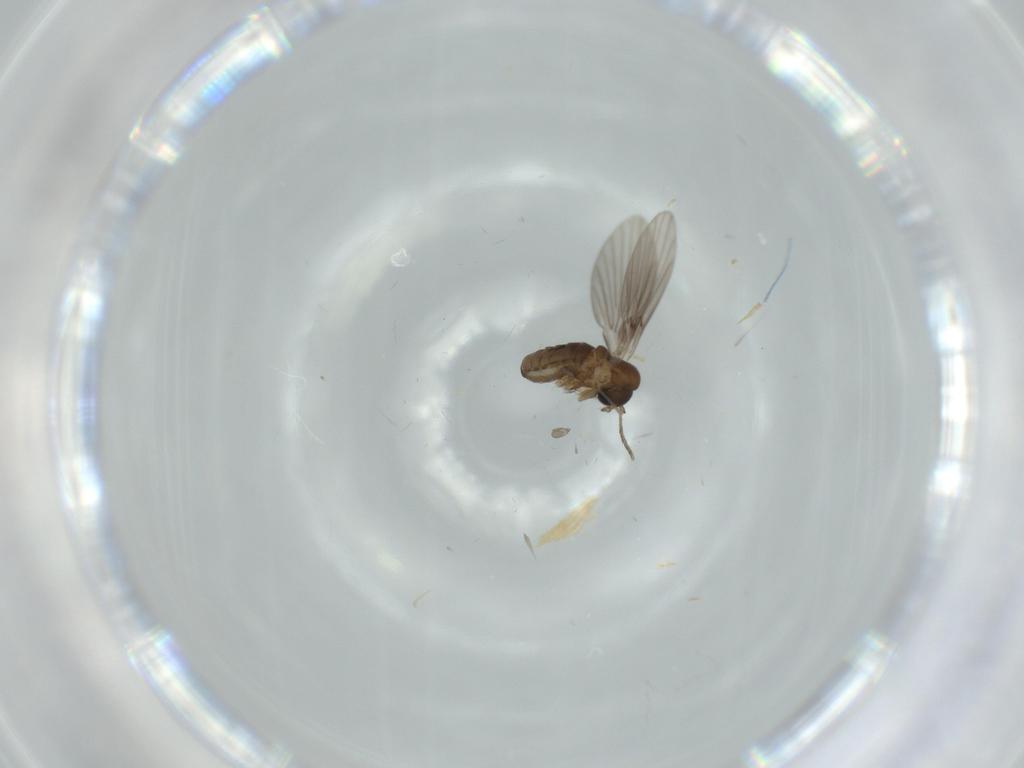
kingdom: Animalia
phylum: Arthropoda
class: Insecta
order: Diptera
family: Psychodidae
